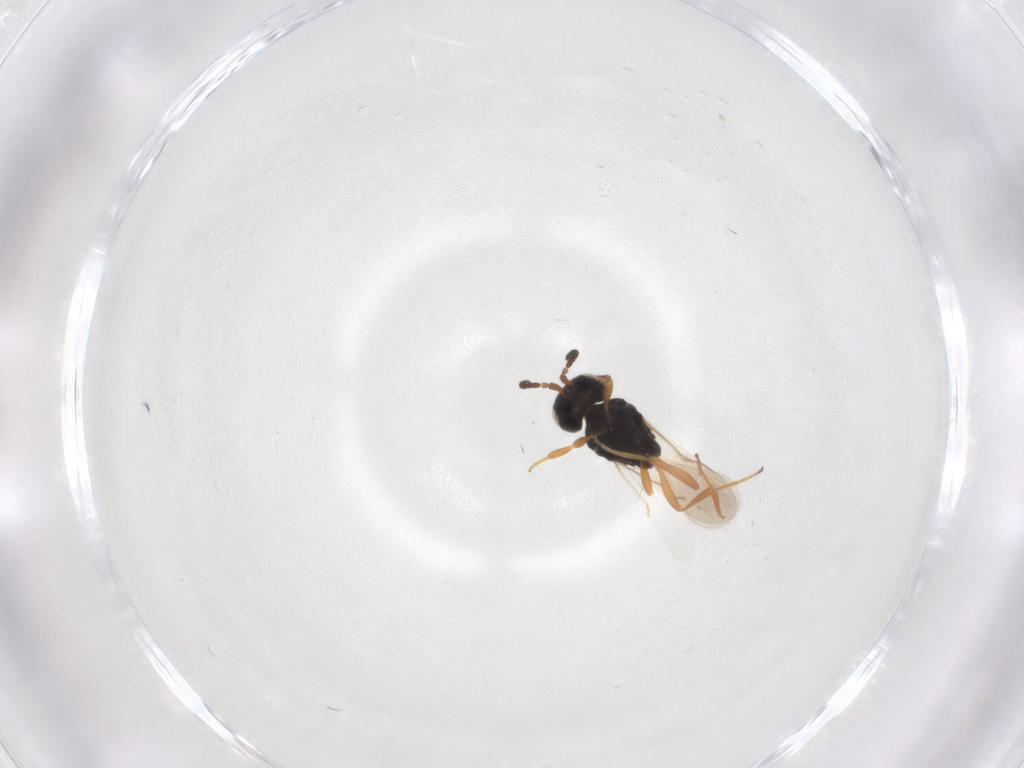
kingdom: Animalia
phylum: Arthropoda
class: Insecta
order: Hymenoptera
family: Scelionidae
